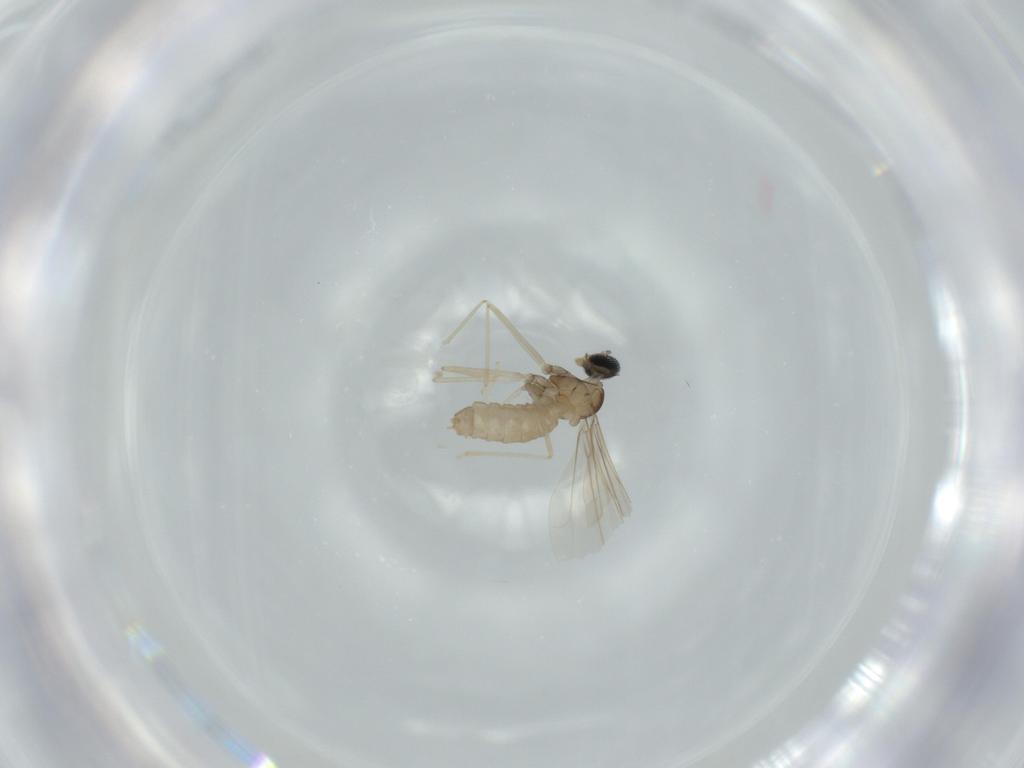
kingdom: Animalia
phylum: Arthropoda
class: Insecta
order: Diptera
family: Cecidomyiidae
